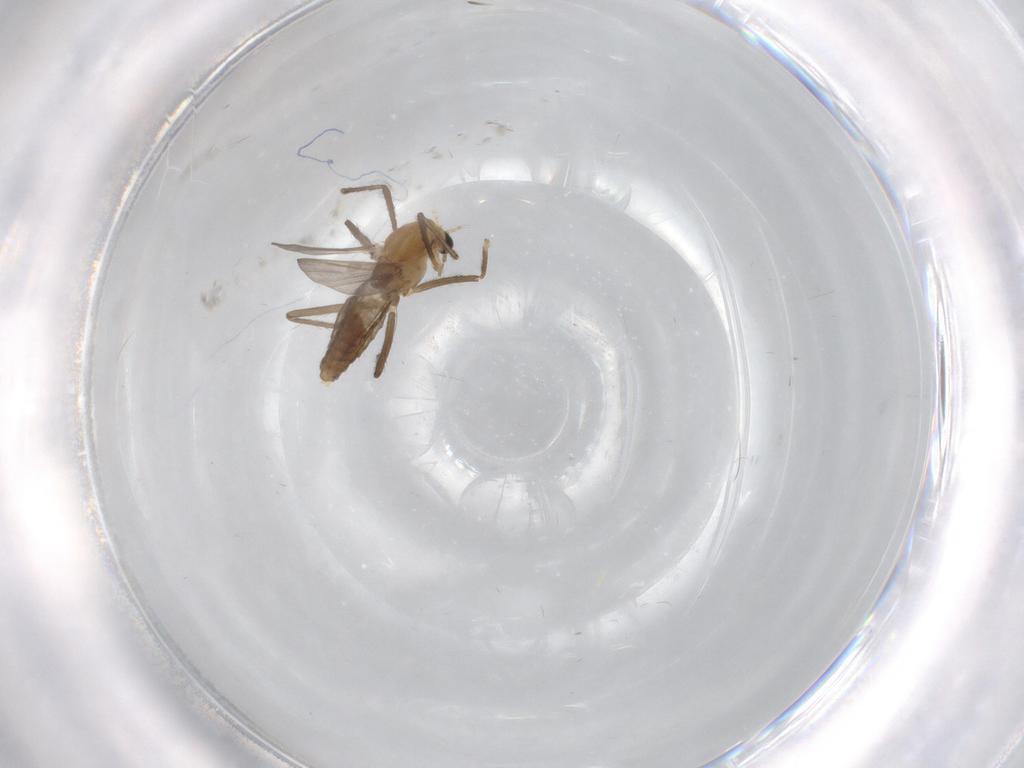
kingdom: Animalia
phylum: Arthropoda
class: Insecta
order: Diptera
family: Chironomidae
